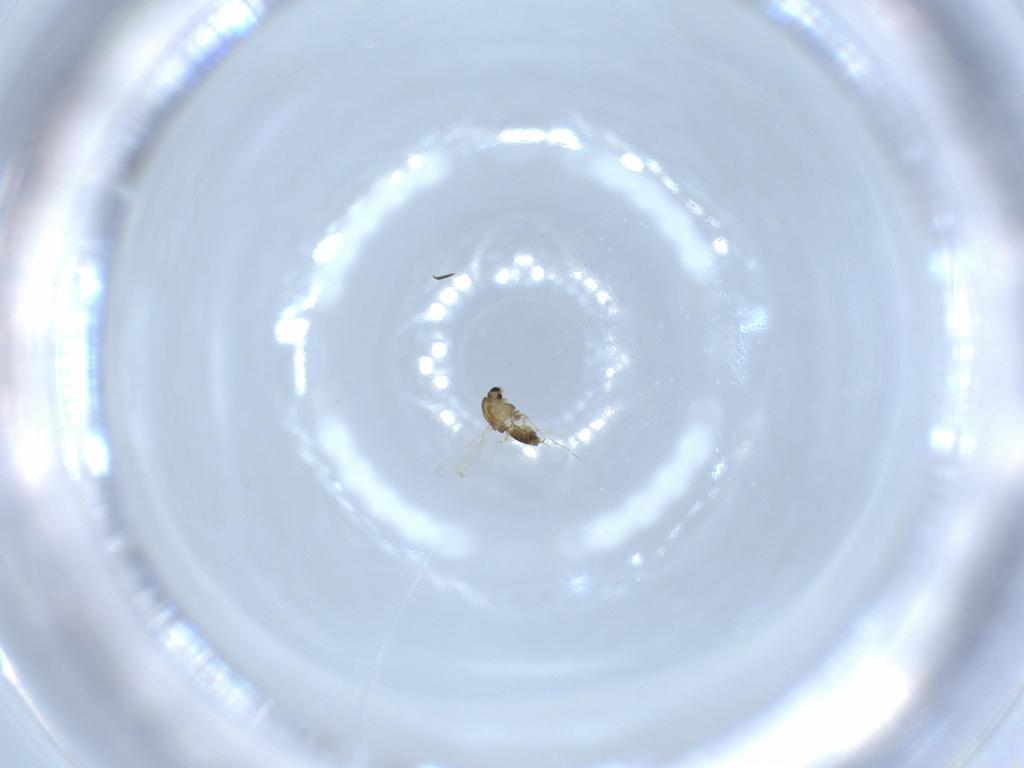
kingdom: Animalia
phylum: Arthropoda
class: Insecta
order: Diptera
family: Chironomidae
